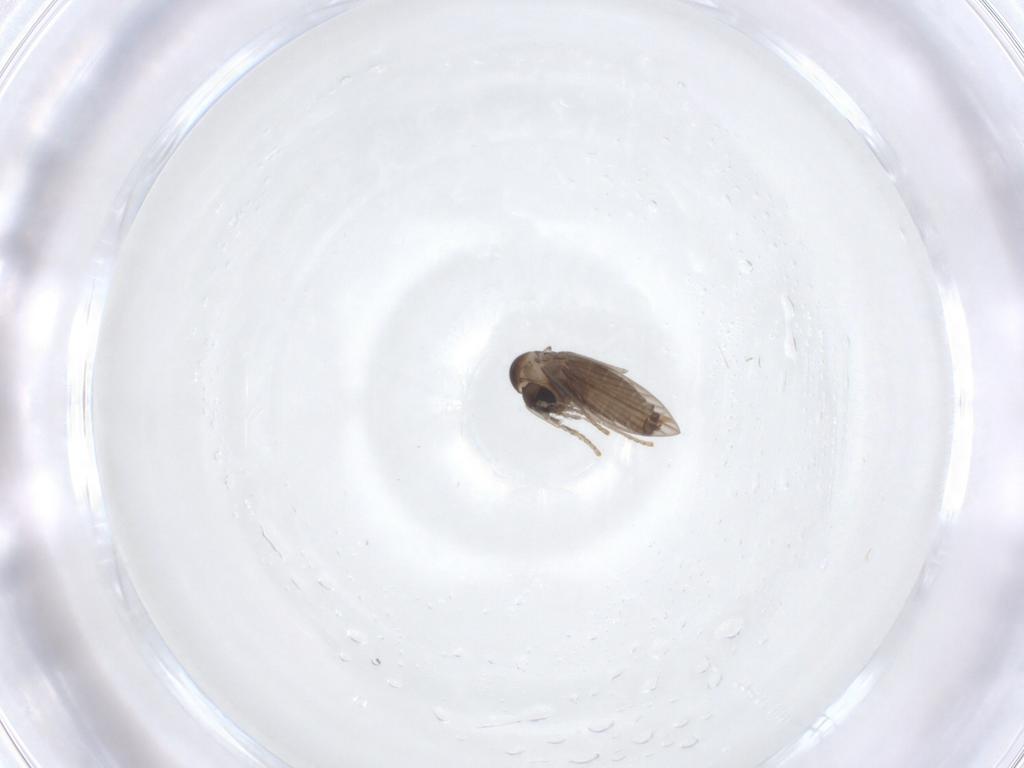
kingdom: Animalia
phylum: Arthropoda
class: Insecta
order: Diptera
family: Psychodidae
